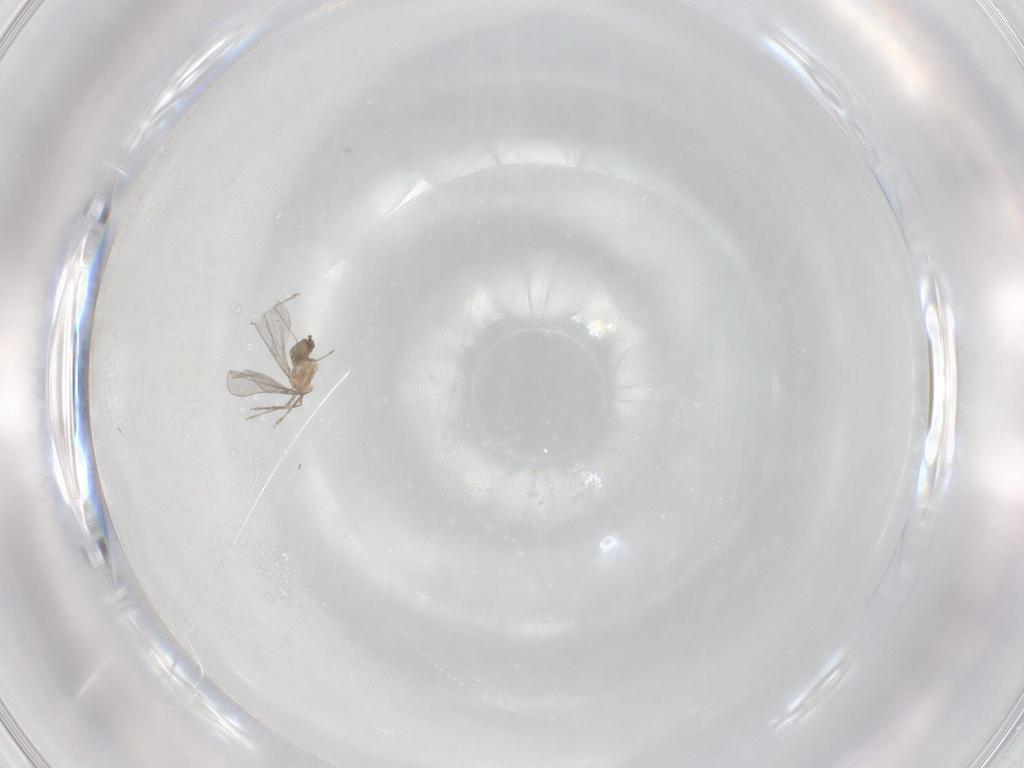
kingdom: Animalia
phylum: Arthropoda
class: Insecta
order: Diptera
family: Cecidomyiidae
